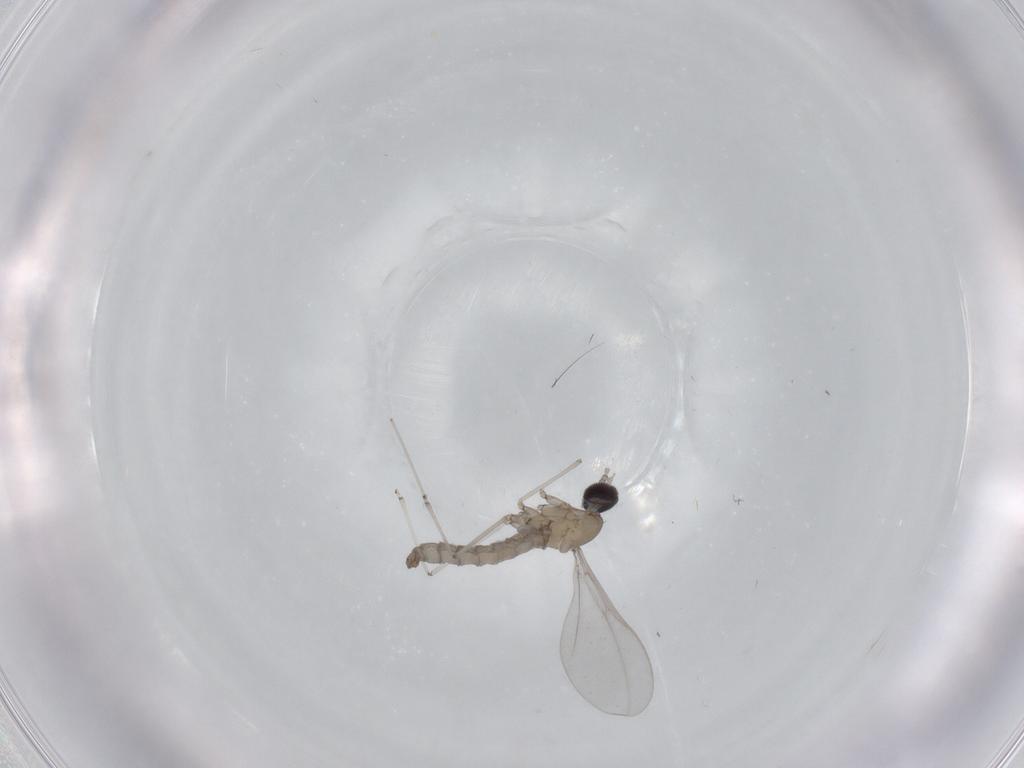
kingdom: Animalia
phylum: Arthropoda
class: Insecta
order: Diptera
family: Cecidomyiidae
